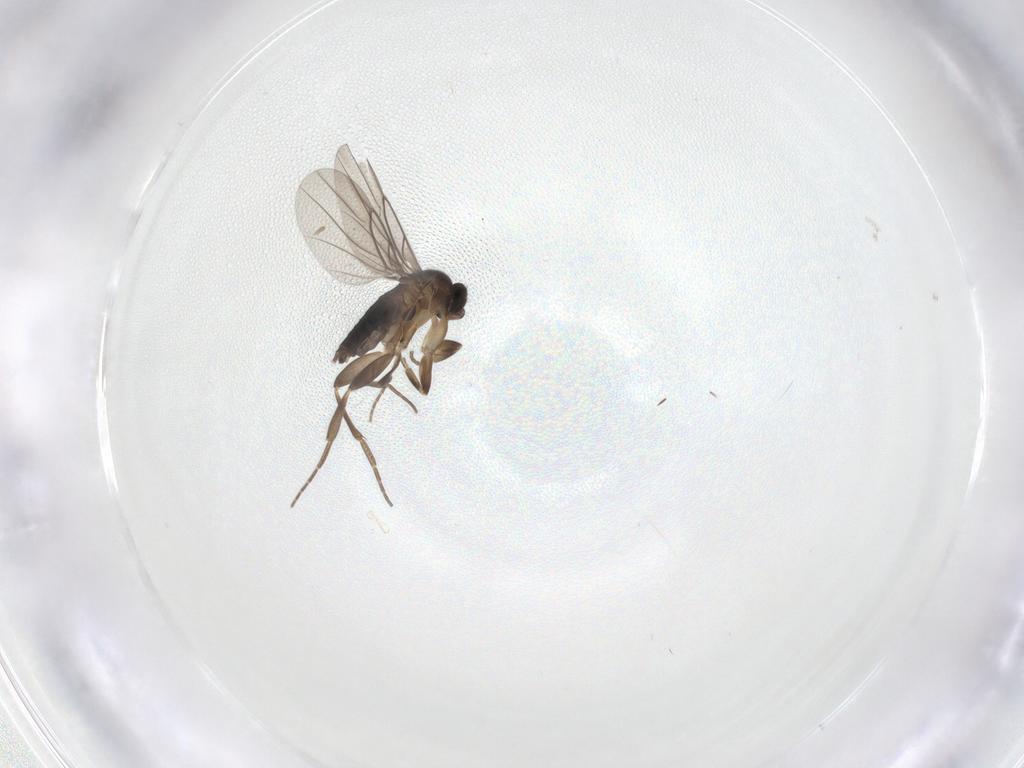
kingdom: Animalia
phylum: Arthropoda
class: Insecta
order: Diptera
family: Phoridae
